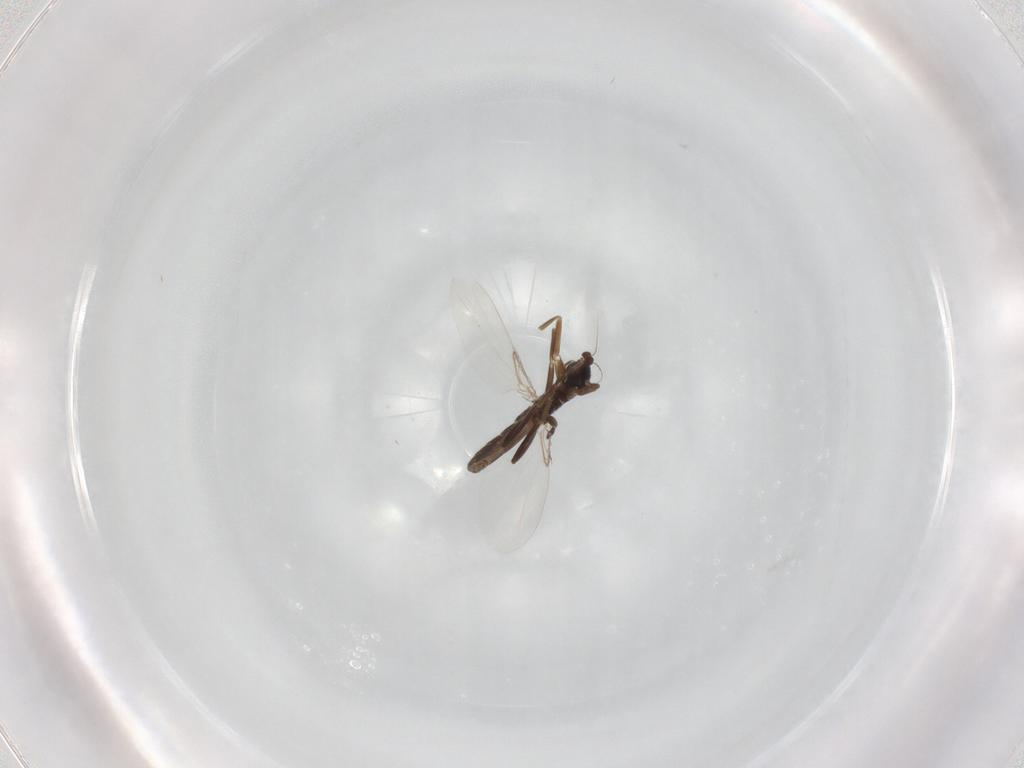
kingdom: Animalia
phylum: Arthropoda
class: Insecta
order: Diptera
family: Phoridae
